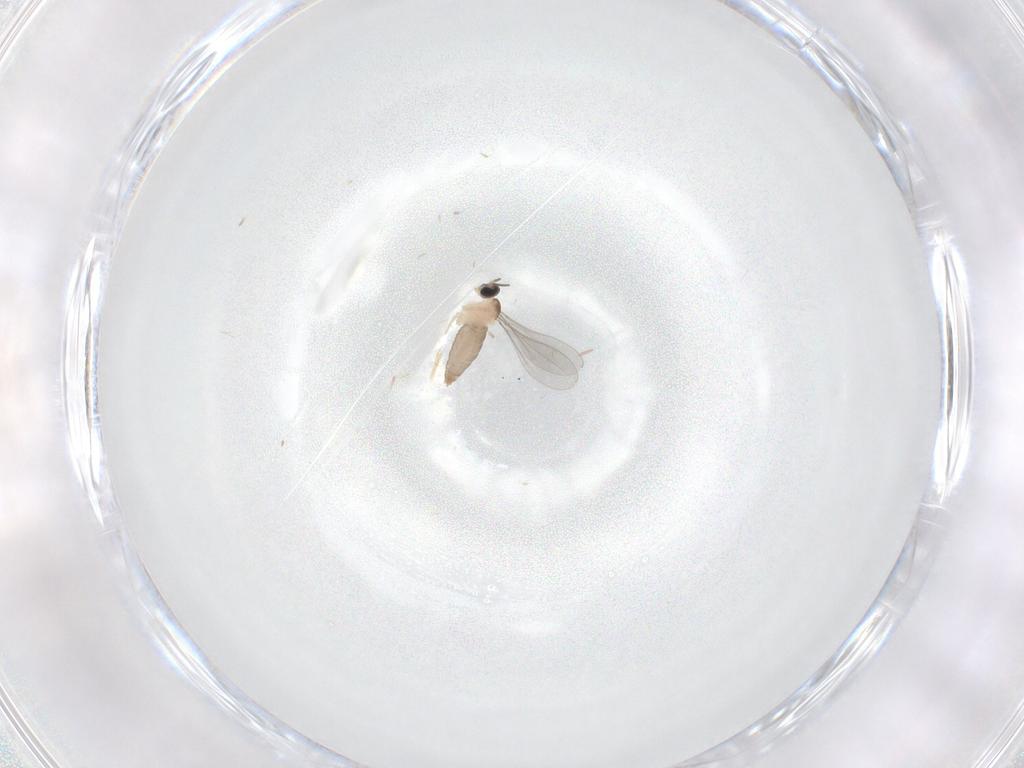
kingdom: Animalia
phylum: Arthropoda
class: Insecta
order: Diptera
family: Cecidomyiidae
